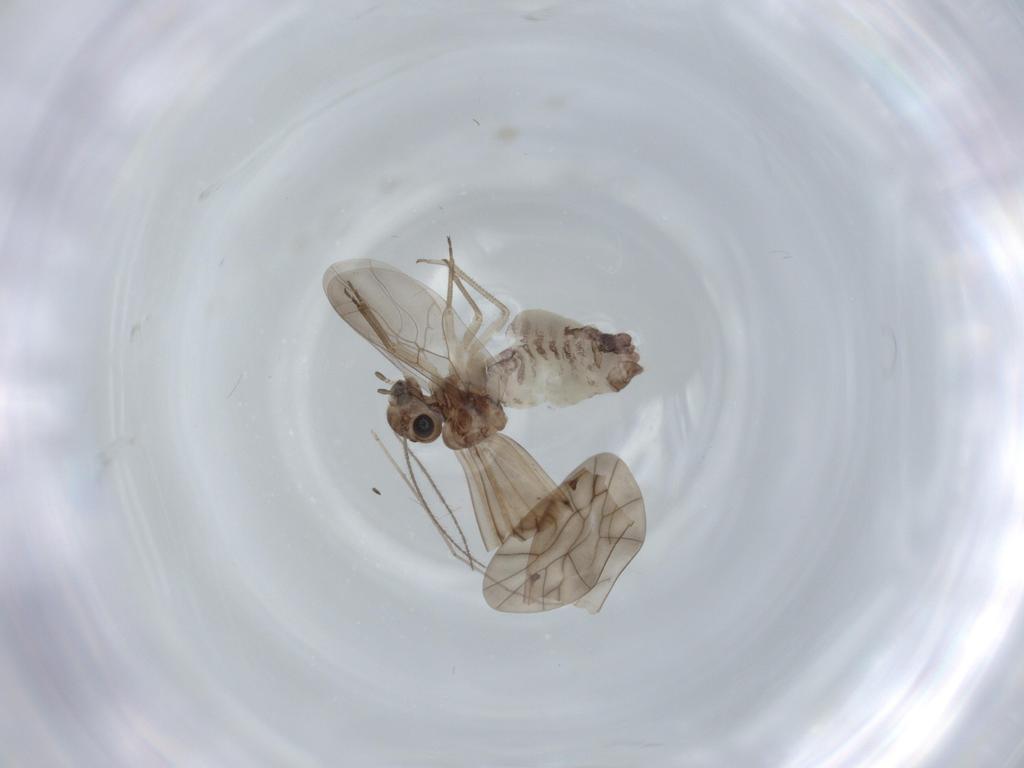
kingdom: Animalia
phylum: Arthropoda
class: Insecta
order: Psocodea
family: Ectopsocidae
